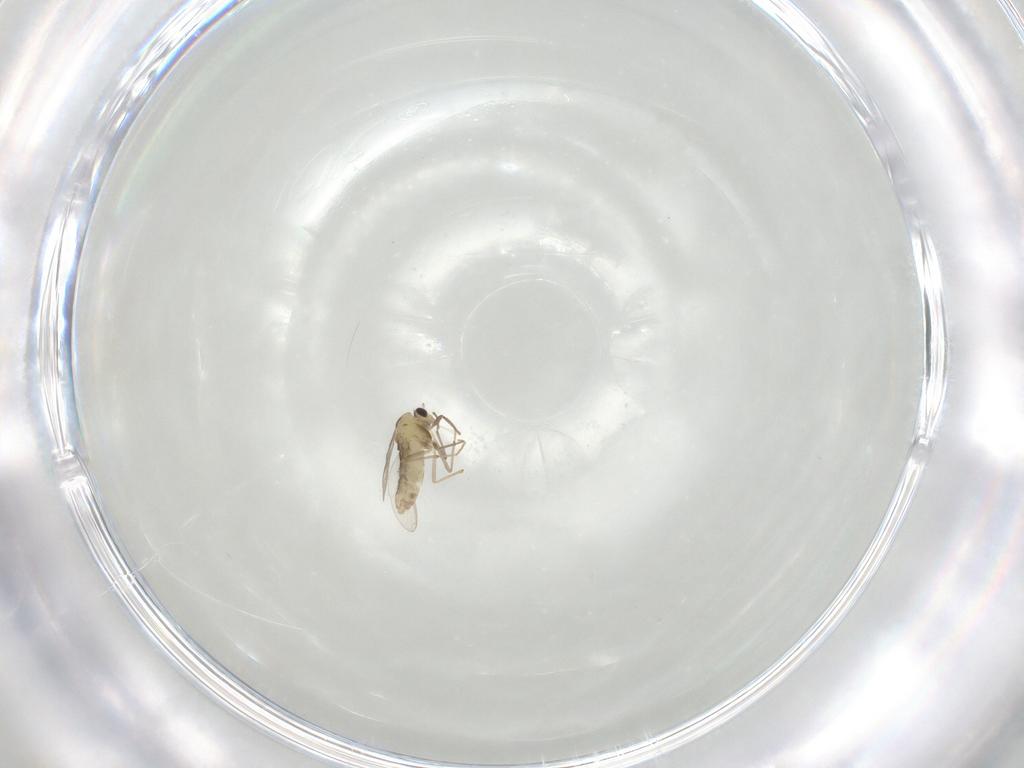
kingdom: Animalia
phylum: Arthropoda
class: Insecta
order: Diptera
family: Chironomidae
